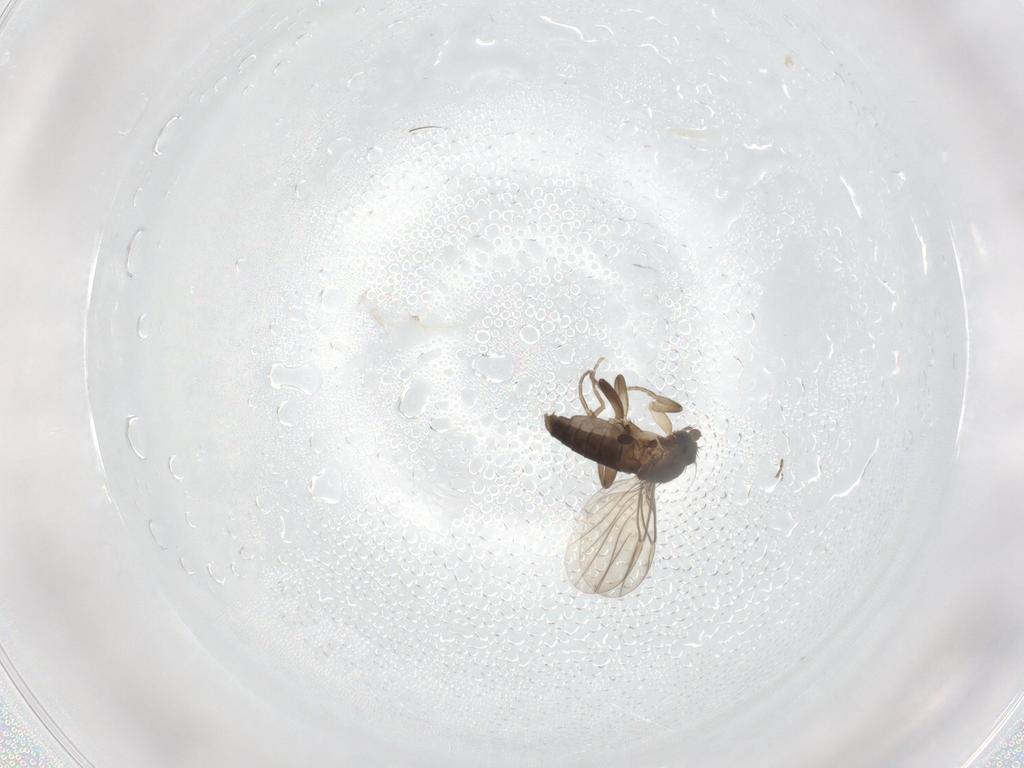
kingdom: Animalia
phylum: Arthropoda
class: Insecta
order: Diptera
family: Phoridae
